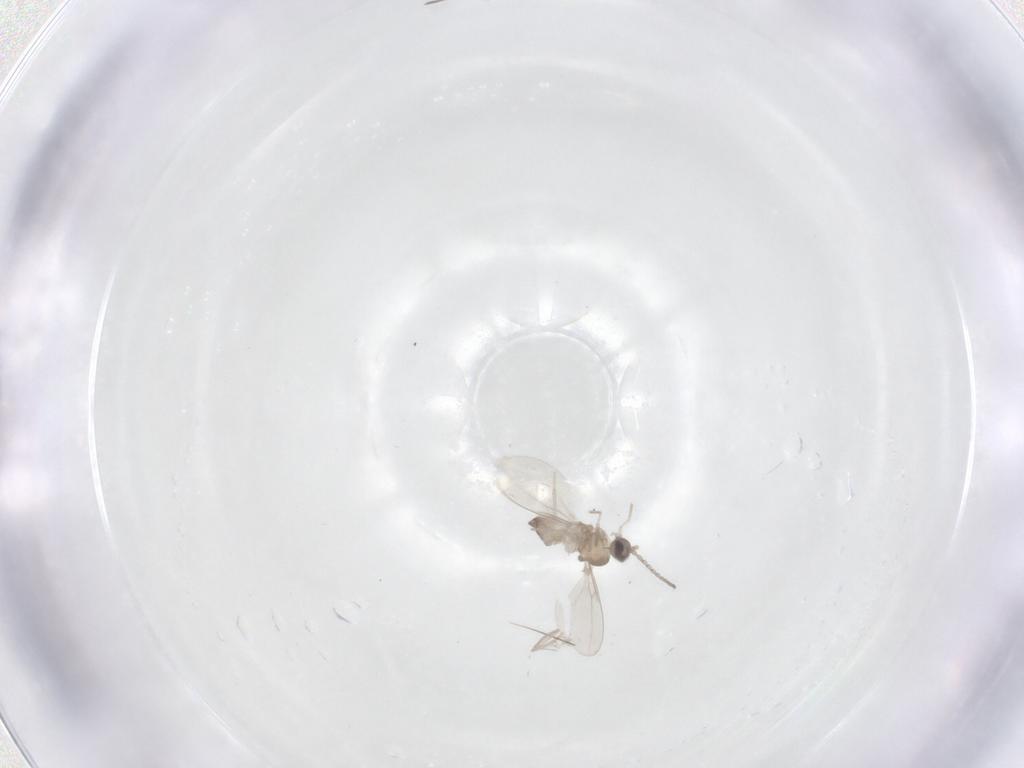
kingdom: Animalia
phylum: Arthropoda
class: Insecta
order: Diptera
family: Cecidomyiidae
